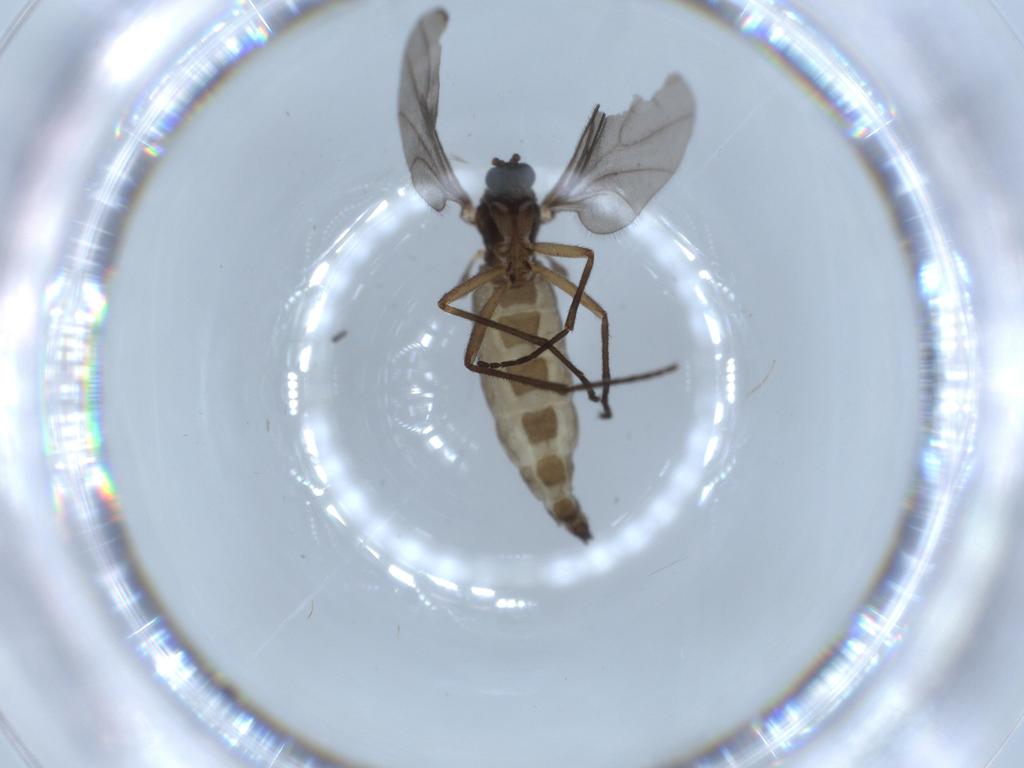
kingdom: Animalia
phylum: Arthropoda
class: Insecta
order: Diptera
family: Sciaridae
